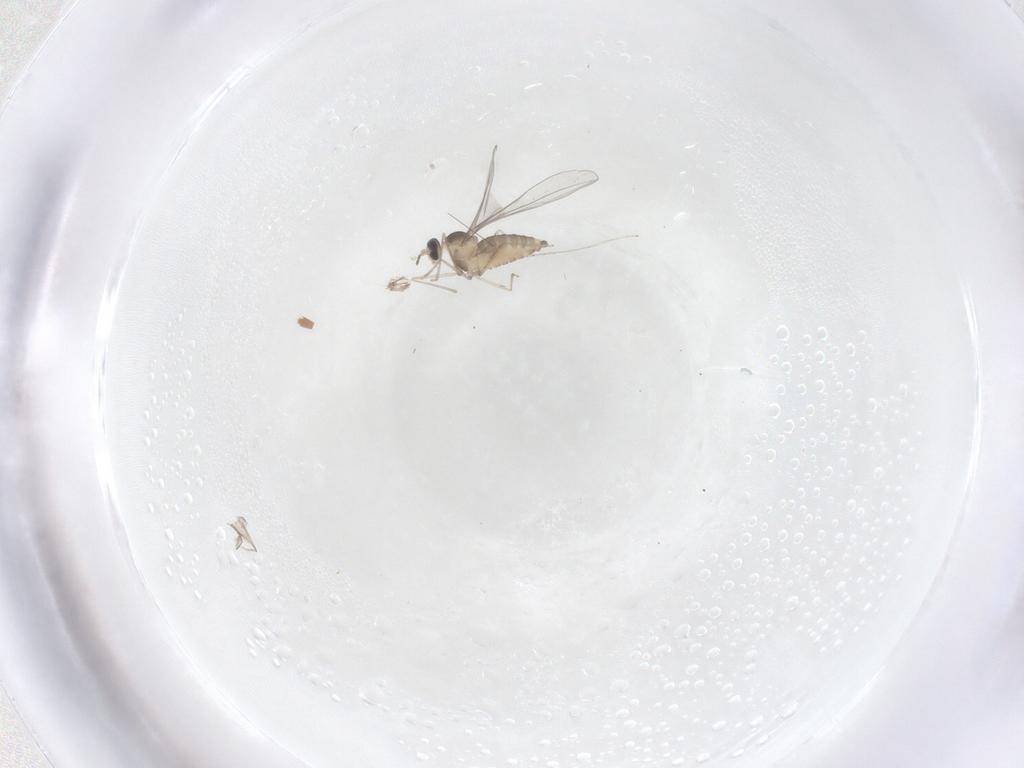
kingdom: Animalia
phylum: Arthropoda
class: Insecta
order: Diptera
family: Cecidomyiidae
